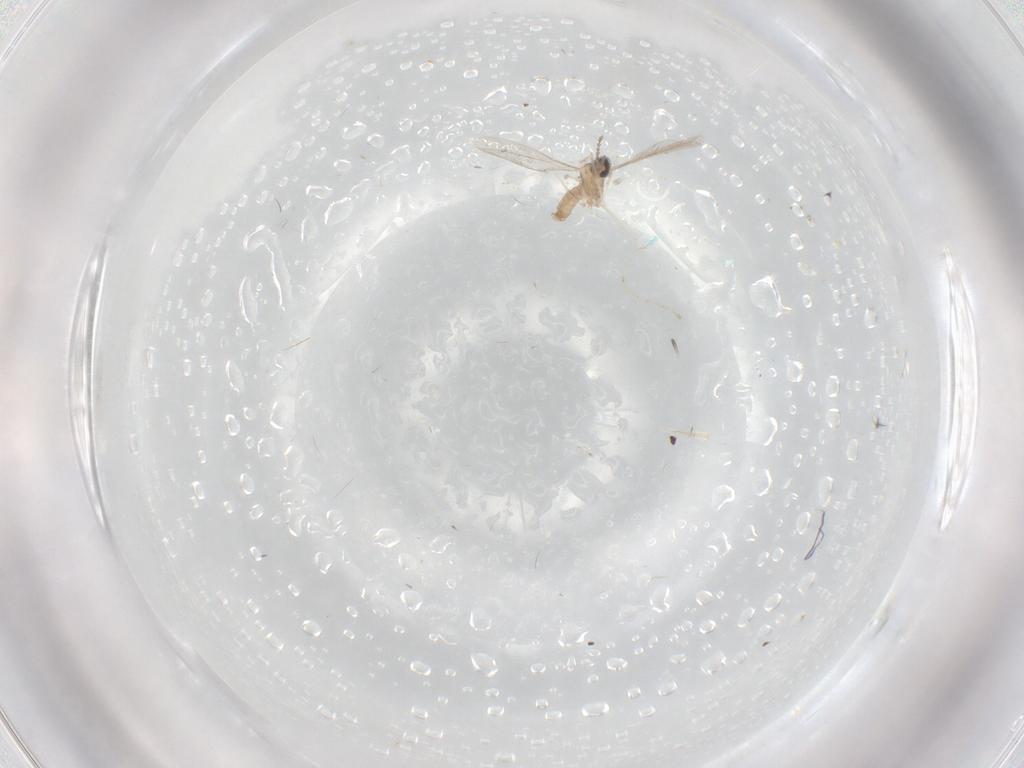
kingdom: Animalia
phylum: Arthropoda
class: Insecta
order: Diptera
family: Cecidomyiidae
